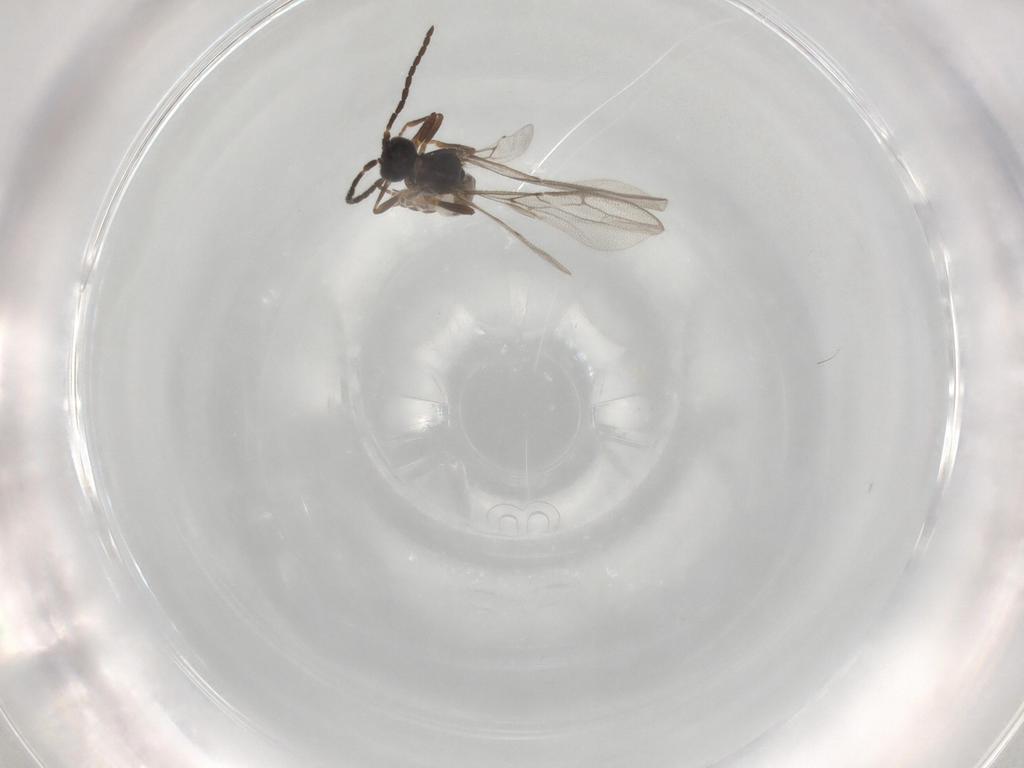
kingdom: Animalia
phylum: Arthropoda
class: Insecta
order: Hymenoptera
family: Braconidae
